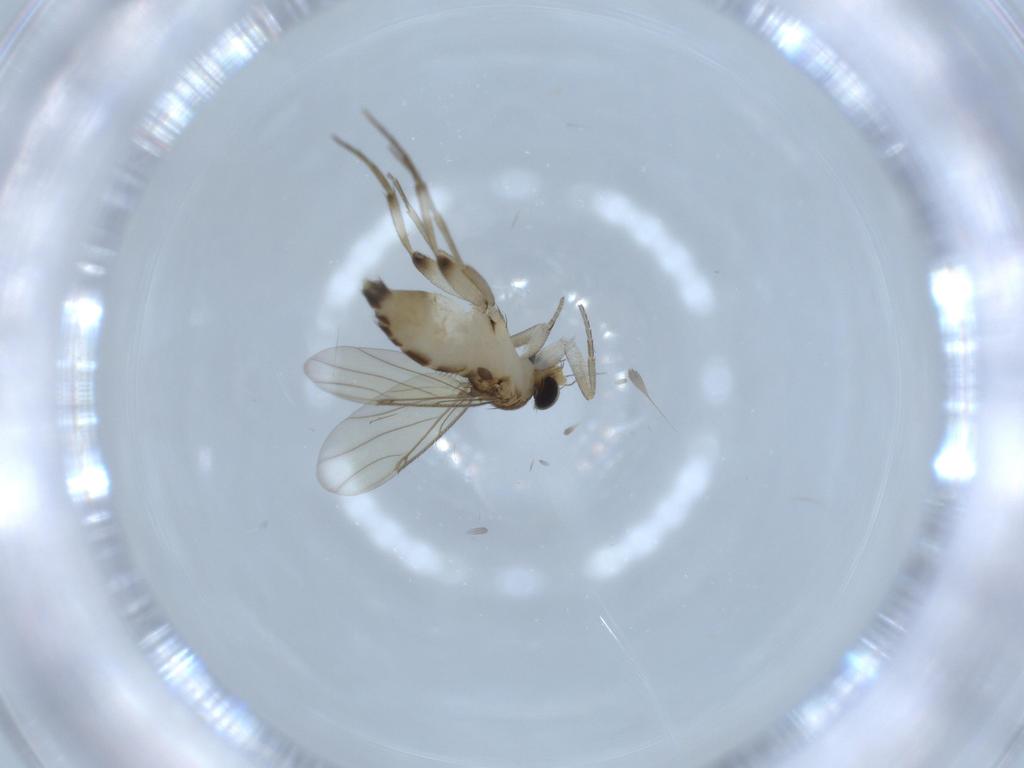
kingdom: Animalia
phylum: Arthropoda
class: Insecta
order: Diptera
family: Phoridae
